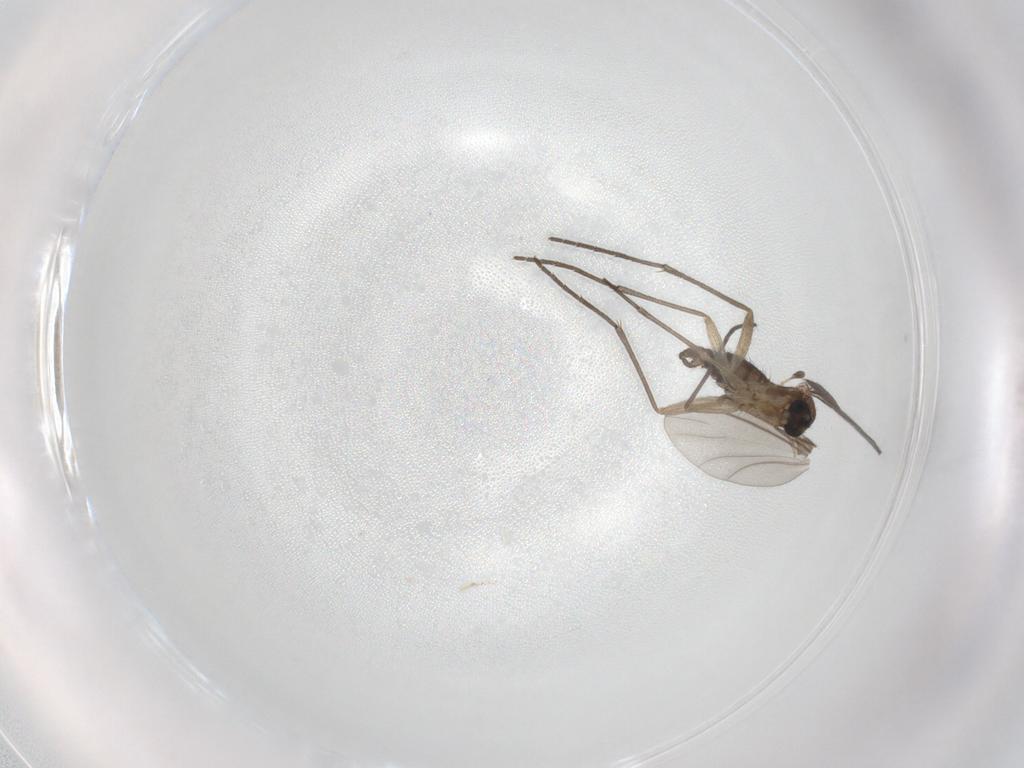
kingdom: Animalia
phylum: Arthropoda
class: Insecta
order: Diptera
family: Sciaridae
